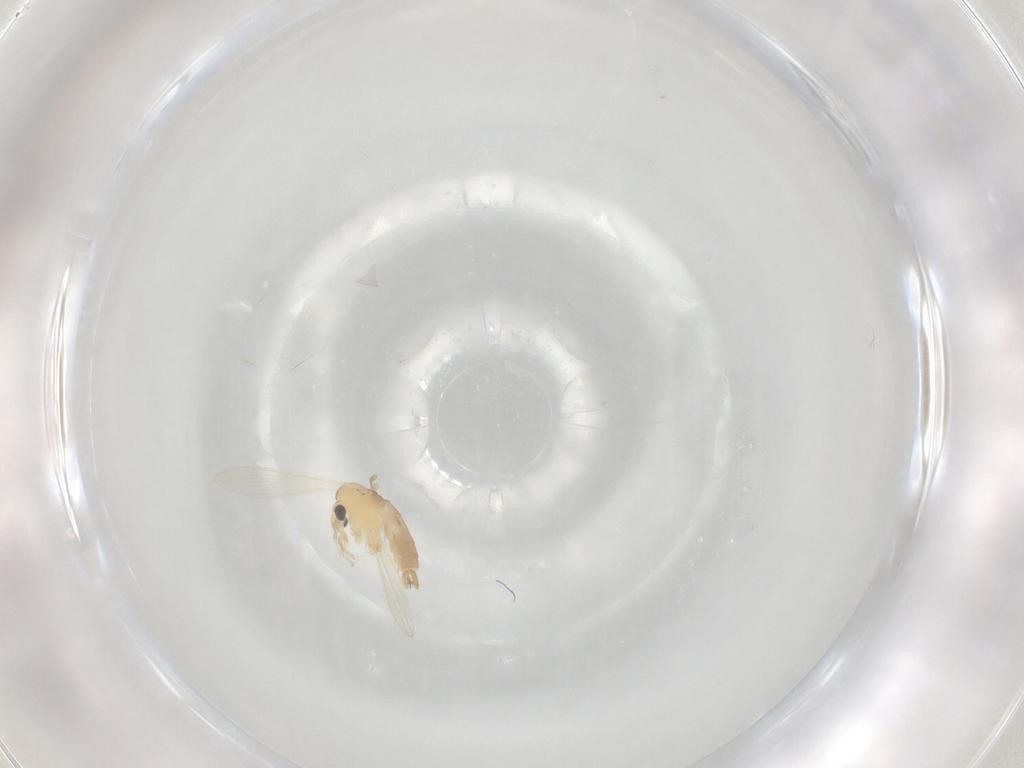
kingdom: Animalia
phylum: Arthropoda
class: Insecta
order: Diptera
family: Psychodidae
